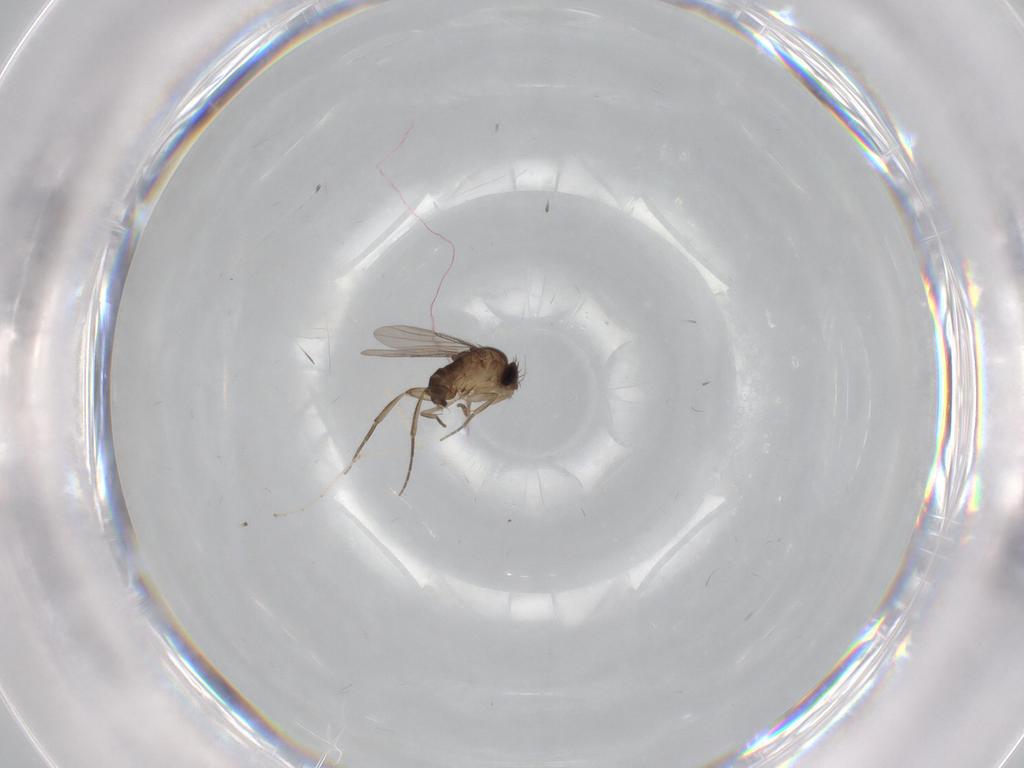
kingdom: Animalia
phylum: Arthropoda
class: Insecta
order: Diptera
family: Cecidomyiidae
